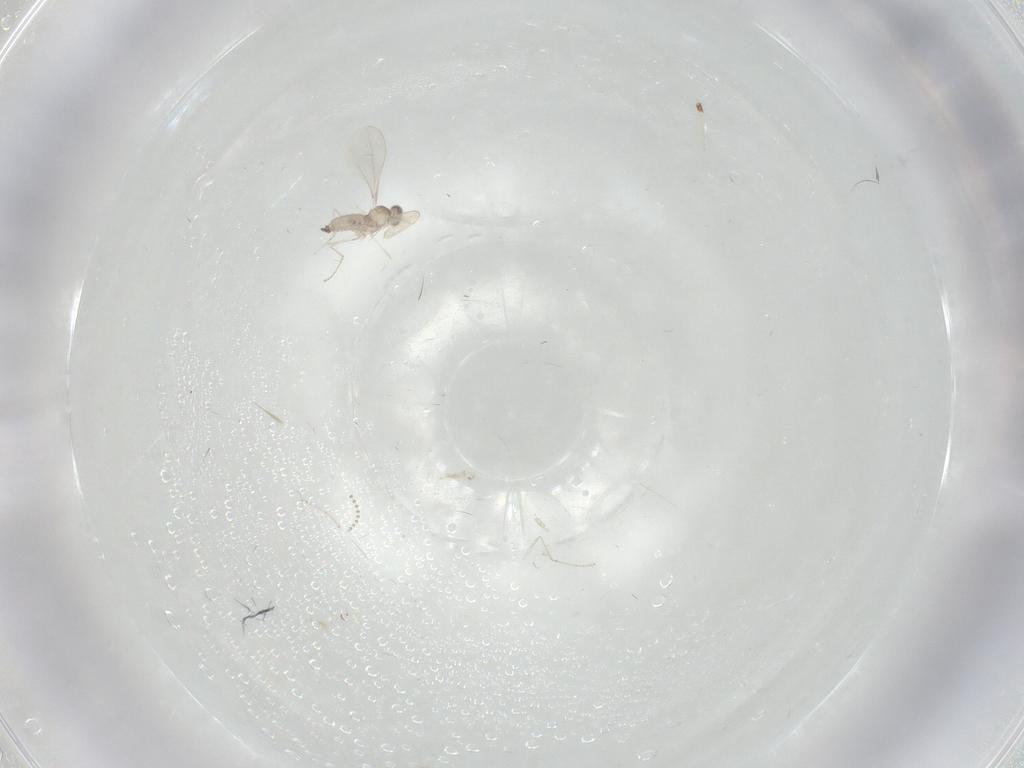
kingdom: Animalia
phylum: Arthropoda
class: Insecta
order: Diptera
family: Psychodidae
